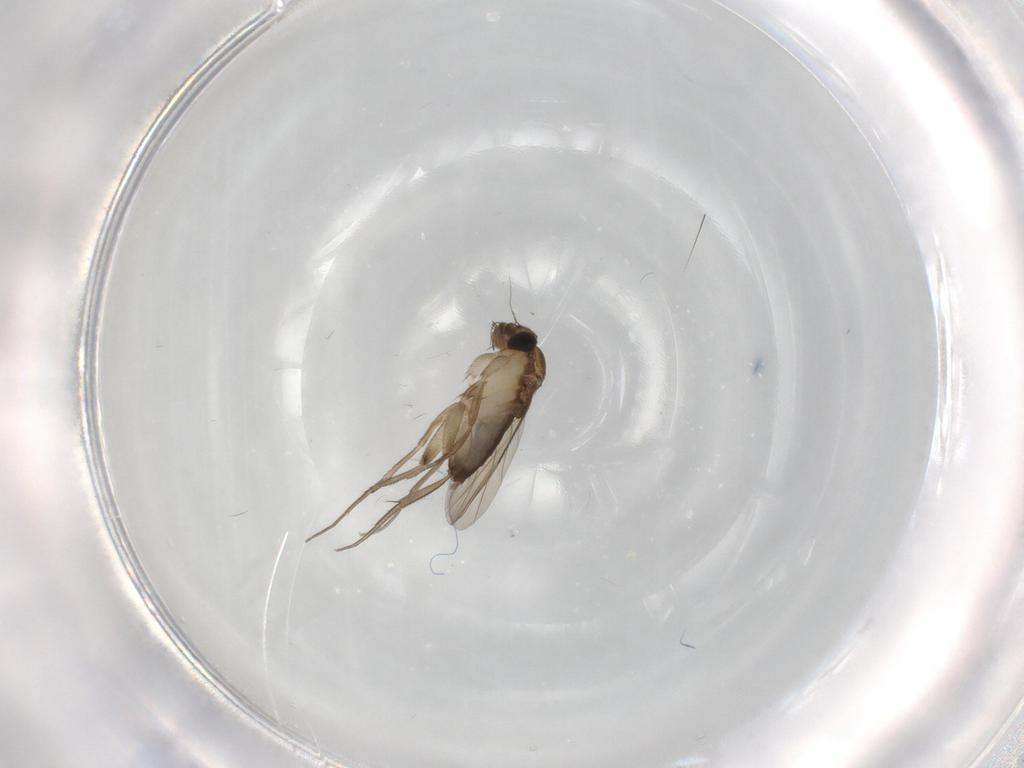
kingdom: Animalia
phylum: Arthropoda
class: Insecta
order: Diptera
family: Phoridae
